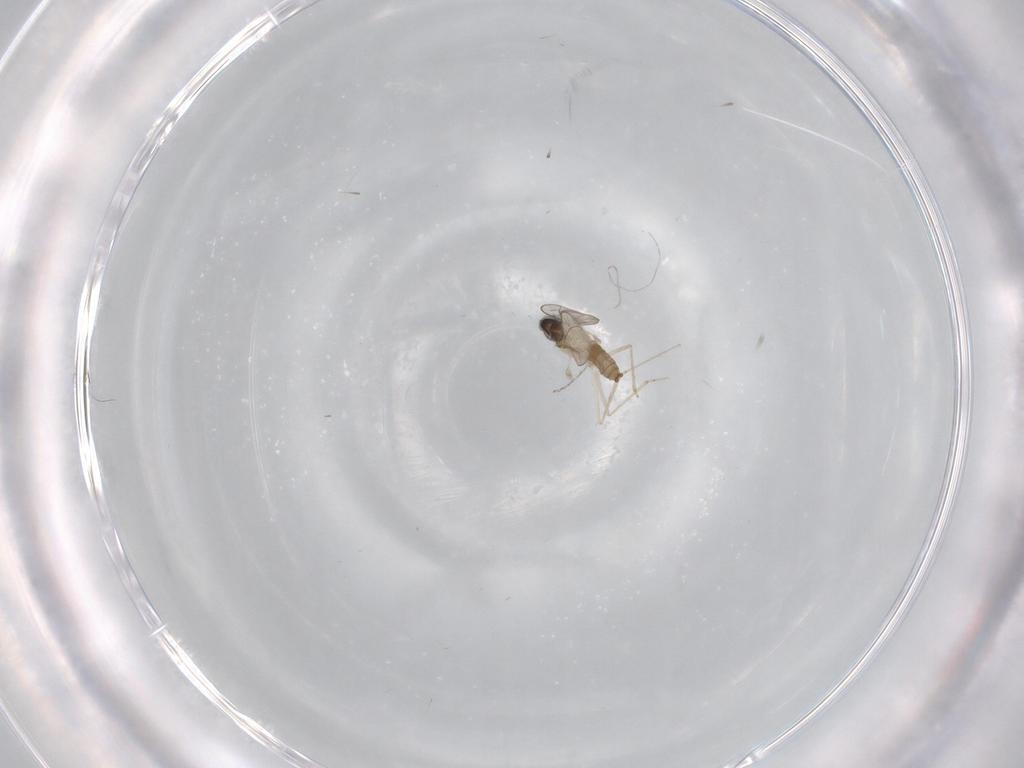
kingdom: Animalia
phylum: Arthropoda
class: Insecta
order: Diptera
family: Cecidomyiidae
